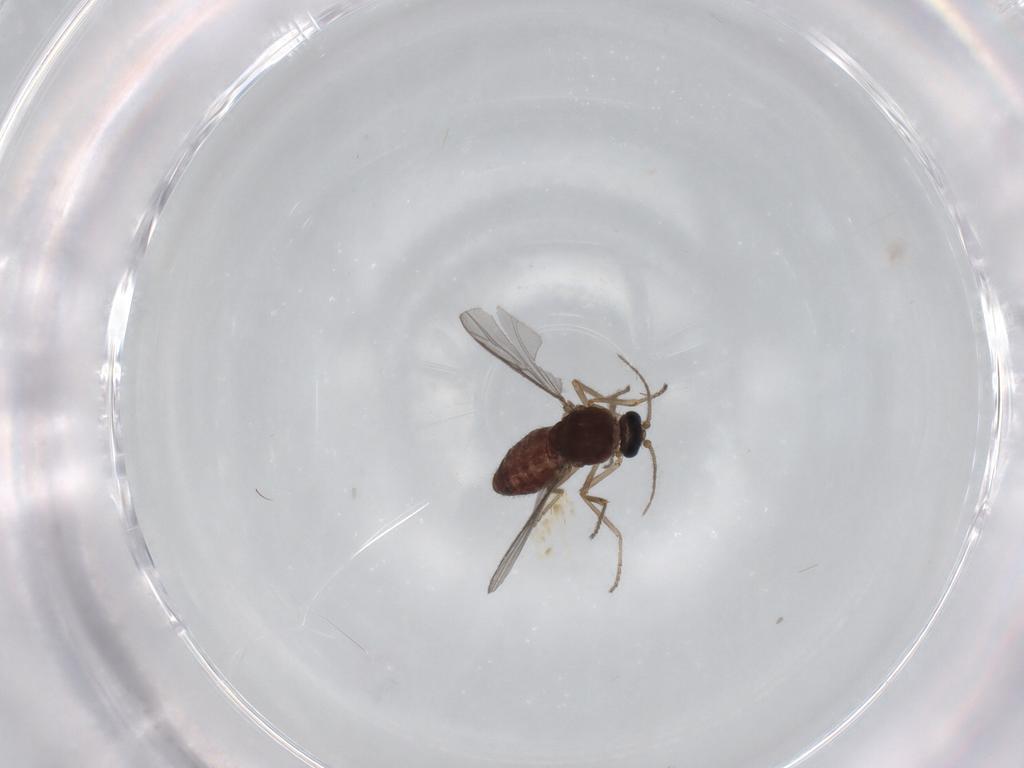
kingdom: Animalia
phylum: Arthropoda
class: Insecta
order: Diptera
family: Ceratopogonidae
